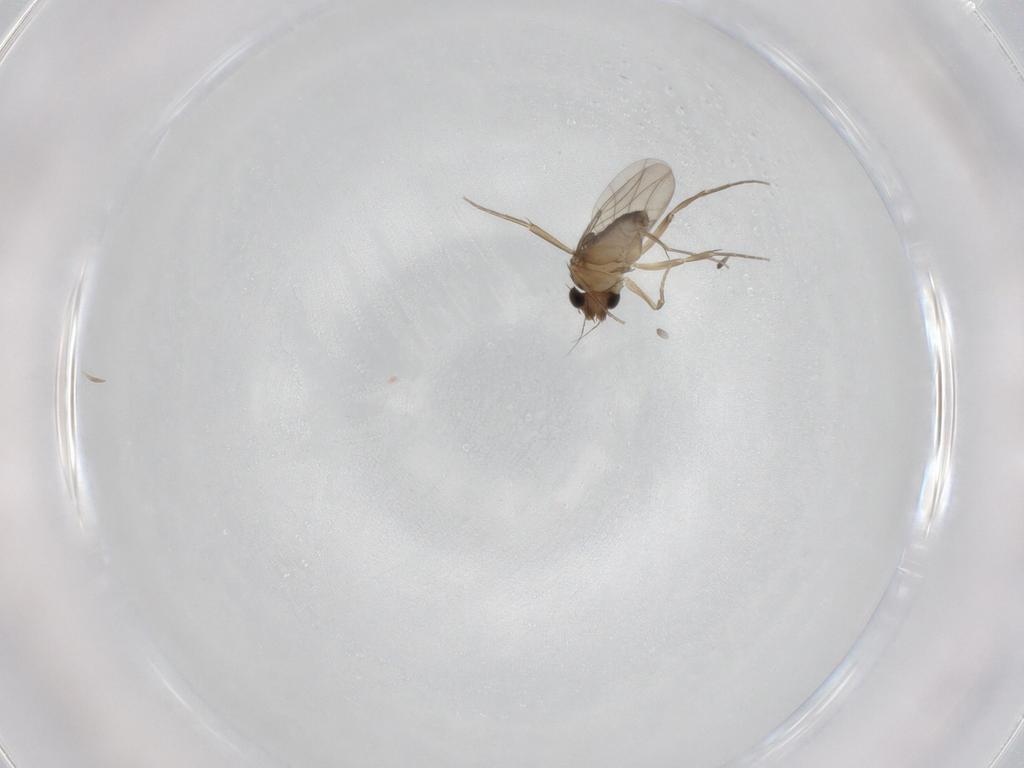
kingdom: Animalia
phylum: Arthropoda
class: Insecta
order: Diptera
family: Phoridae
